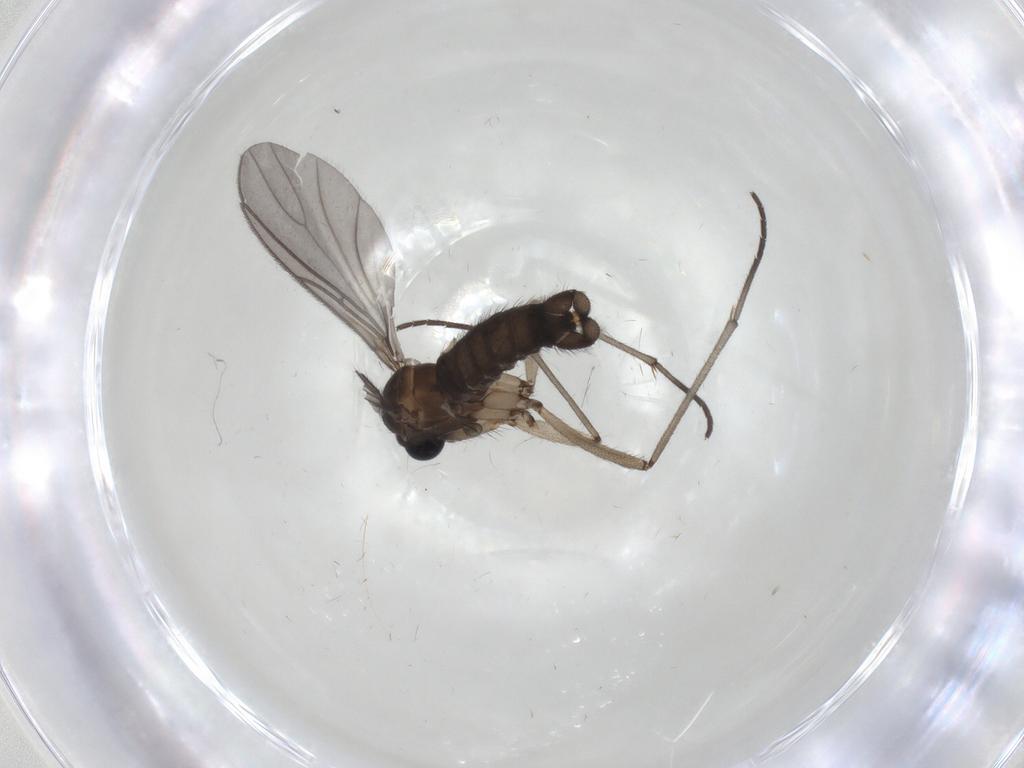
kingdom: Animalia
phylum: Arthropoda
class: Insecta
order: Diptera
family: Sciaridae
